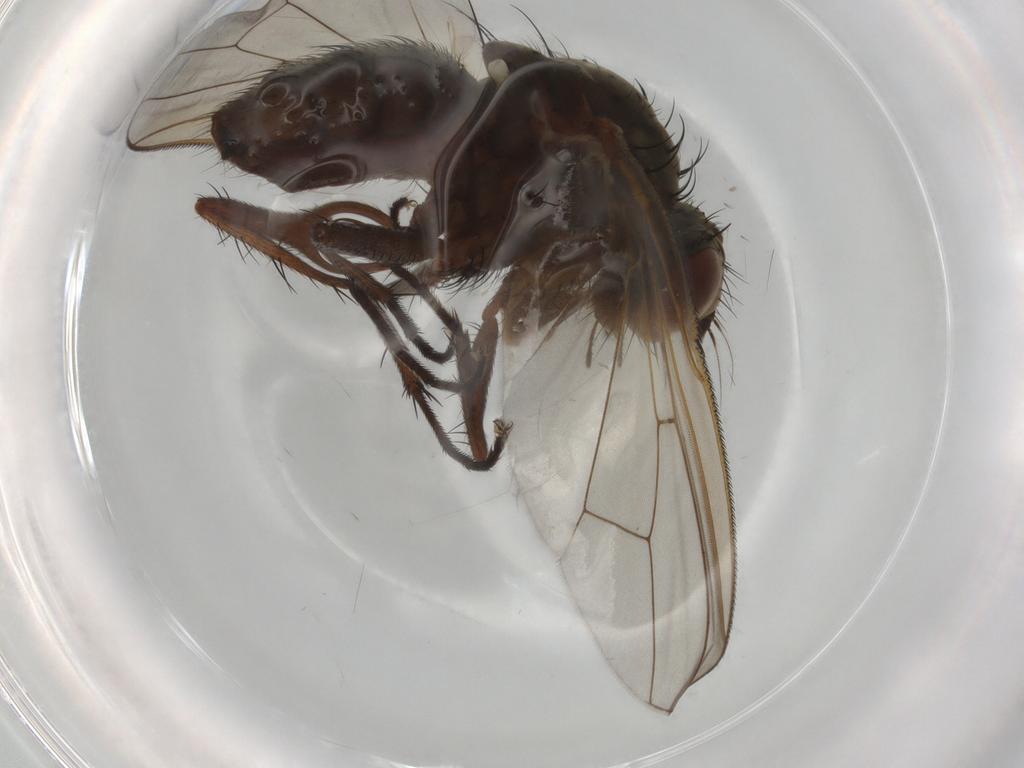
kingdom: Animalia
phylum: Arthropoda
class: Insecta
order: Diptera
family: Anthomyiidae
